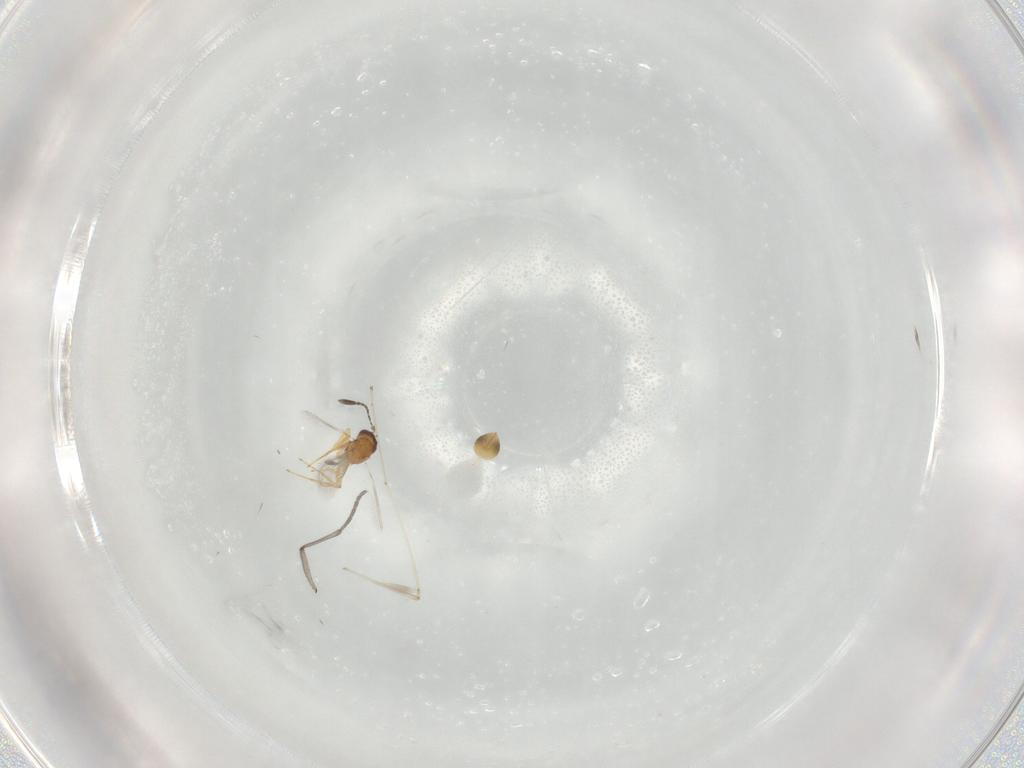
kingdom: Animalia
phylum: Arthropoda
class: Insecta
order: Hymenoptera
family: Mymaridae
